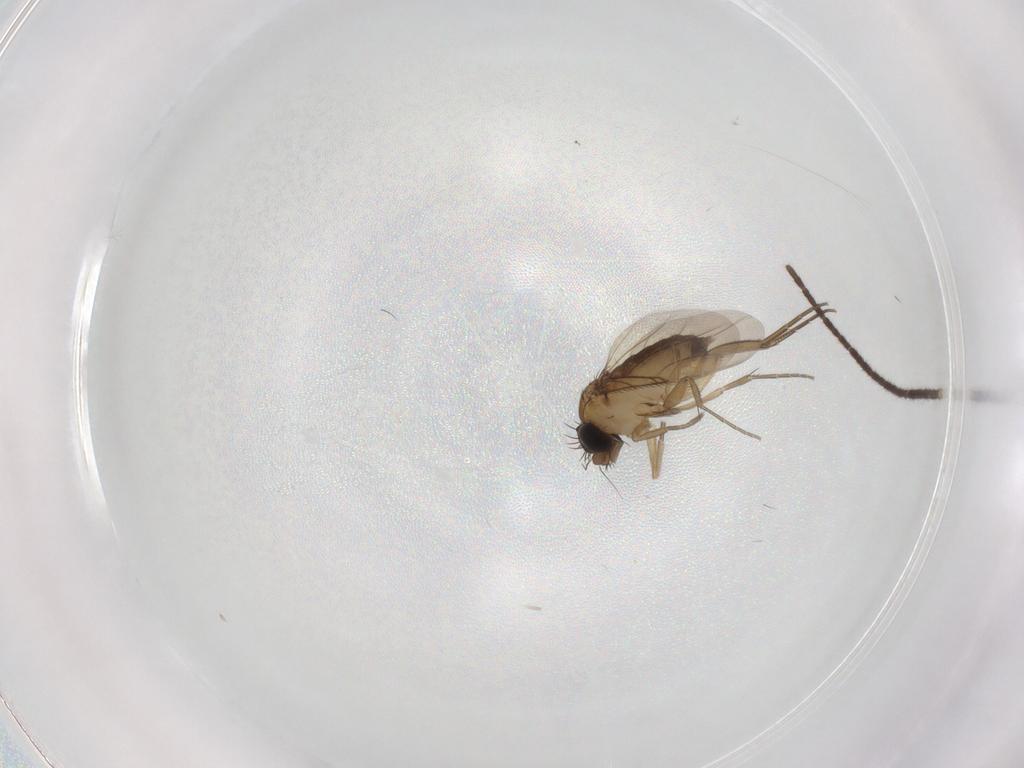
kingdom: Animalia
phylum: Arthropoda
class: Insecta
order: Diptera
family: Phoridae
